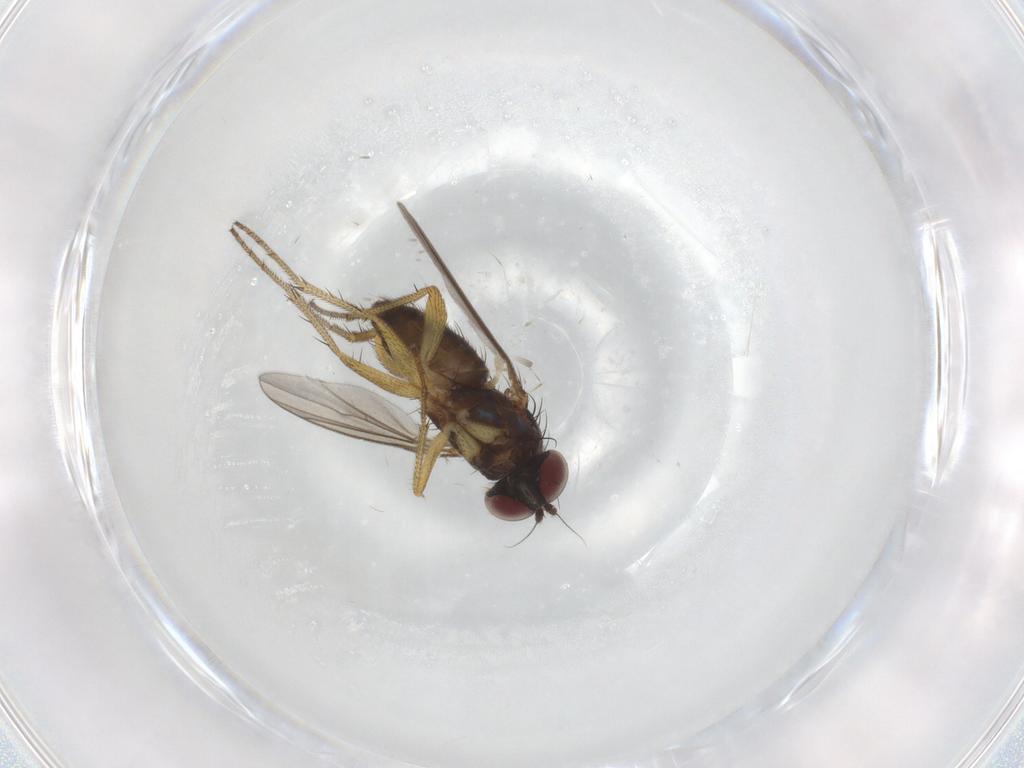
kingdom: Animalia
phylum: Arthropoda
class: Insecta
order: Diptera
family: Dolichopodidae
